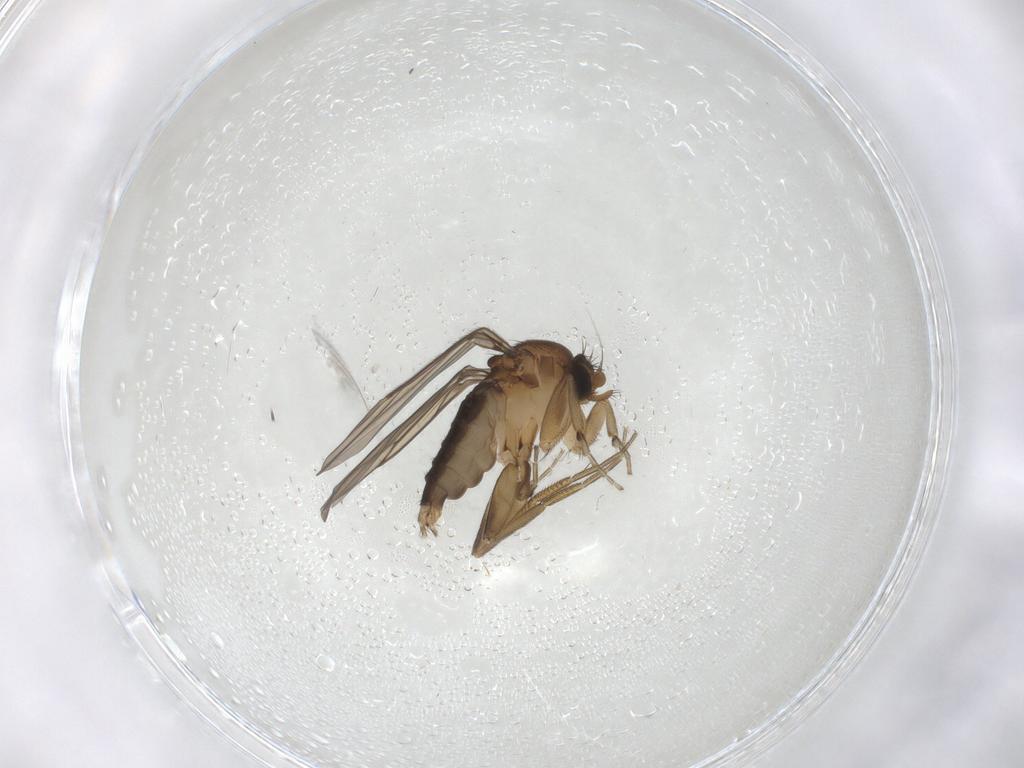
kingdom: Animalia
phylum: Arthropoda
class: Insecta
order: Diptera
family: Phoridae
